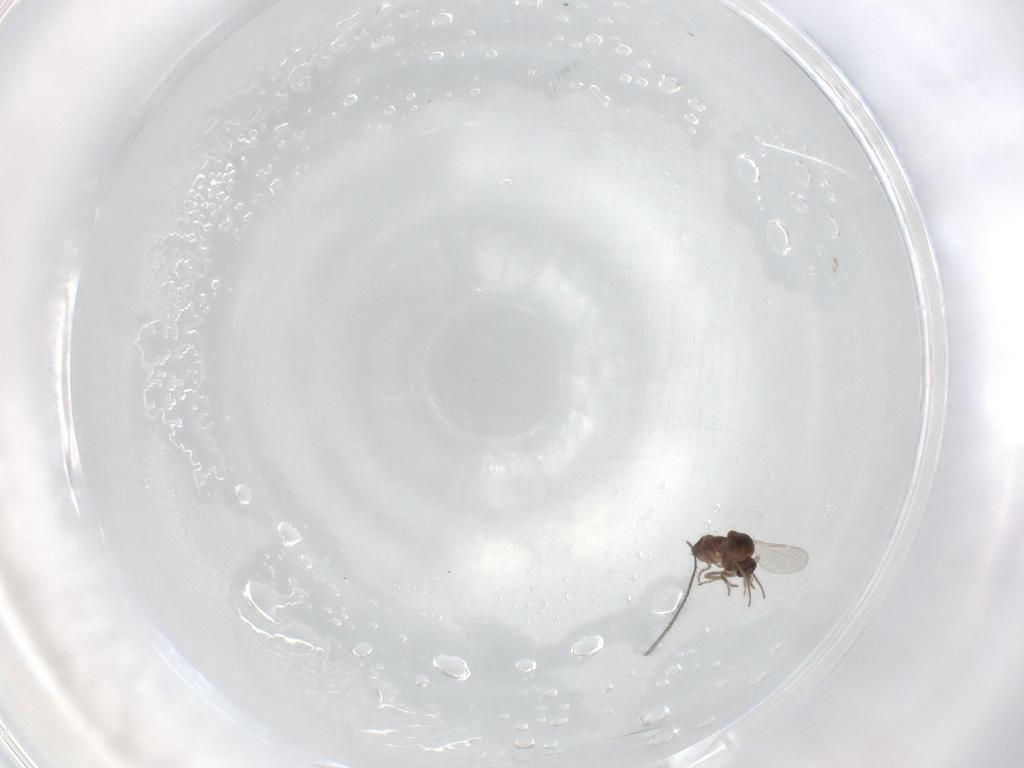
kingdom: Animalia
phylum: Arthropoda
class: Insecta
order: Diptera
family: Ceratopogonidae
